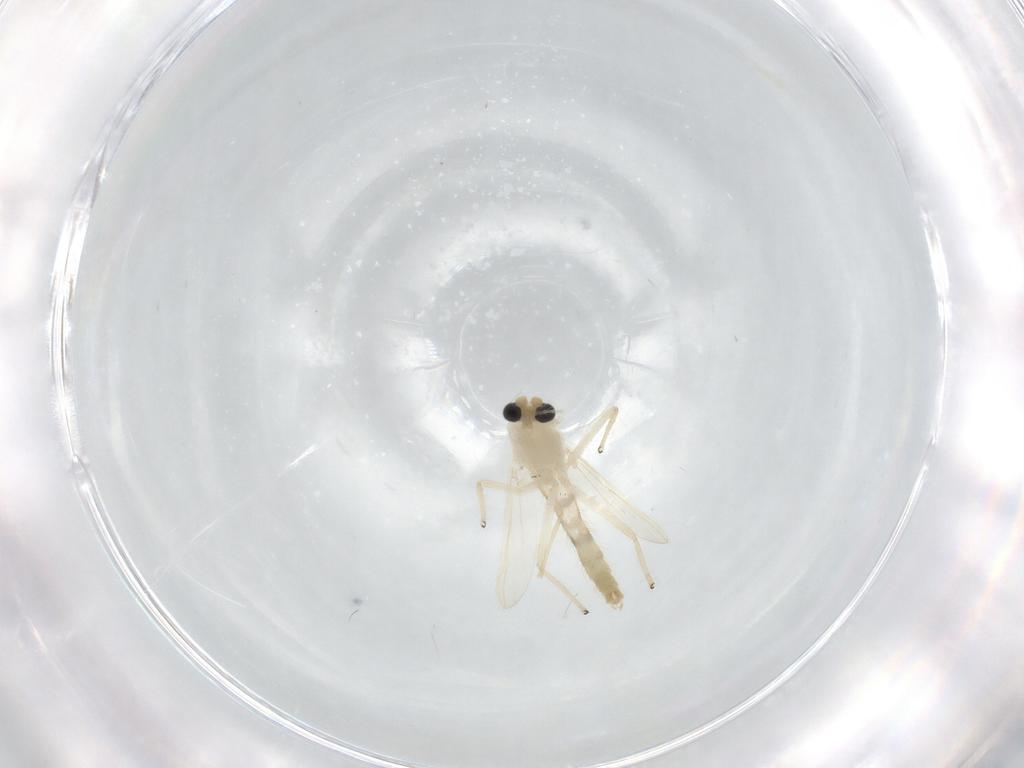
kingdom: Animalia
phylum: Arthropoda
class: Insecta
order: Diptera
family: Chironomidae
